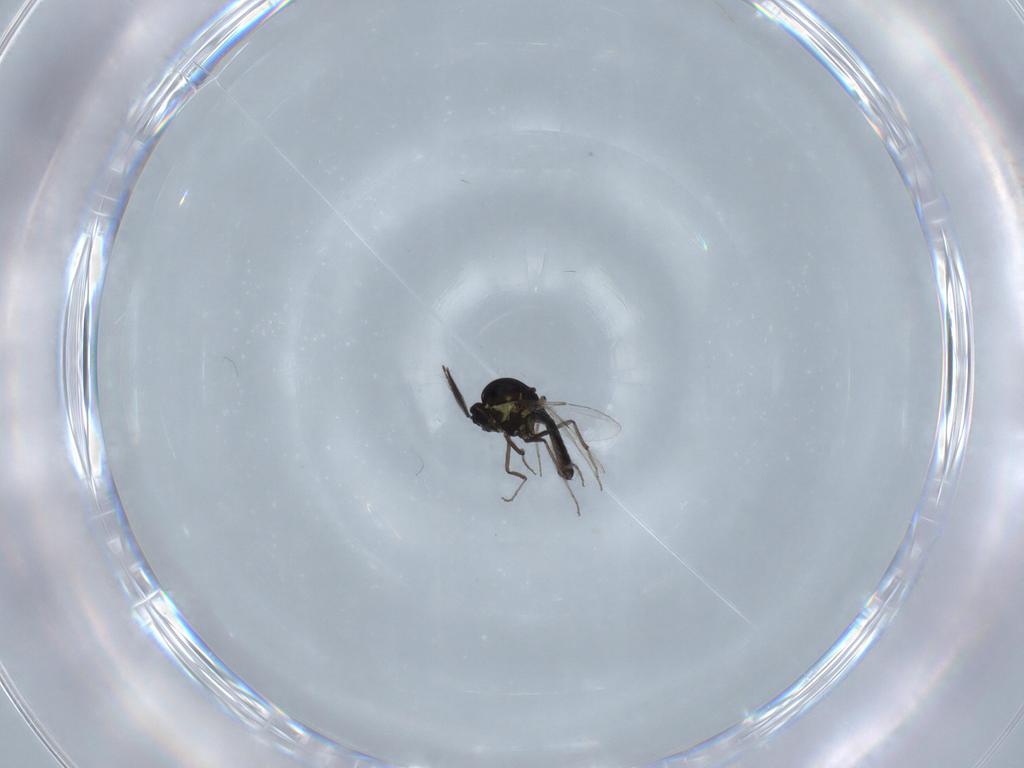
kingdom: Animalia
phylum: Arthropoda
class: Insecta
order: Diptera
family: Ceratopogonidae
